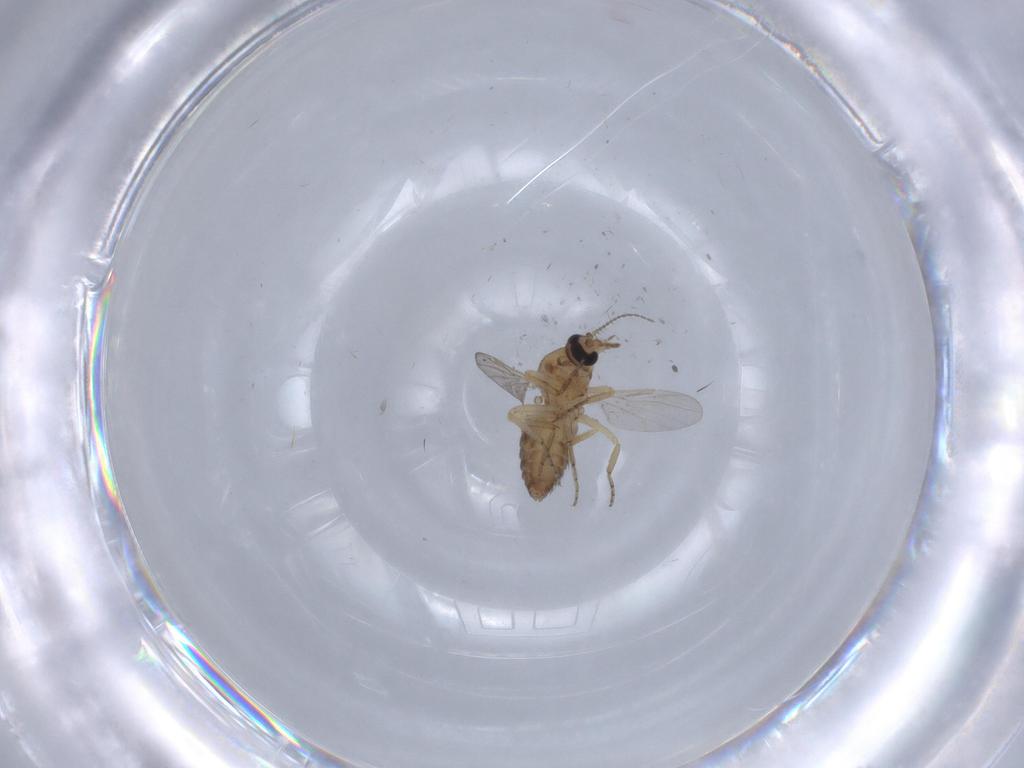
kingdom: Animalia
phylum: Arthropoda
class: Insecta
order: Diptera
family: Ceratopogonidae
